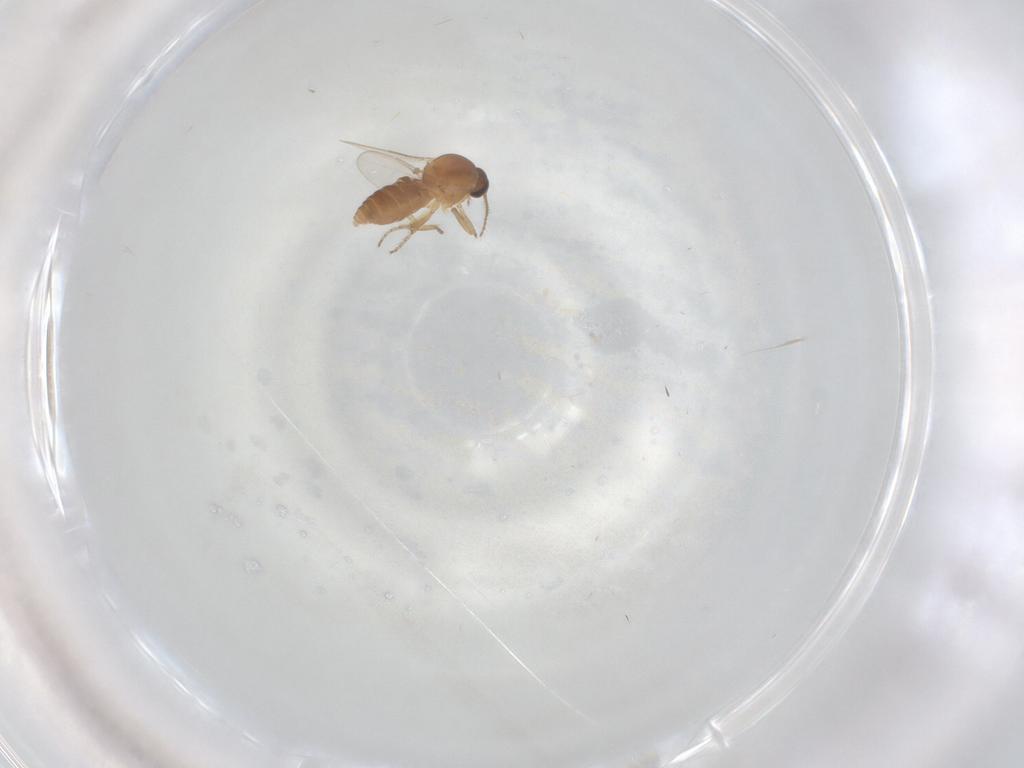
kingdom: Animalia
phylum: Arthropoda
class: Insecta
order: Diptera
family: Ceratopogonidae
